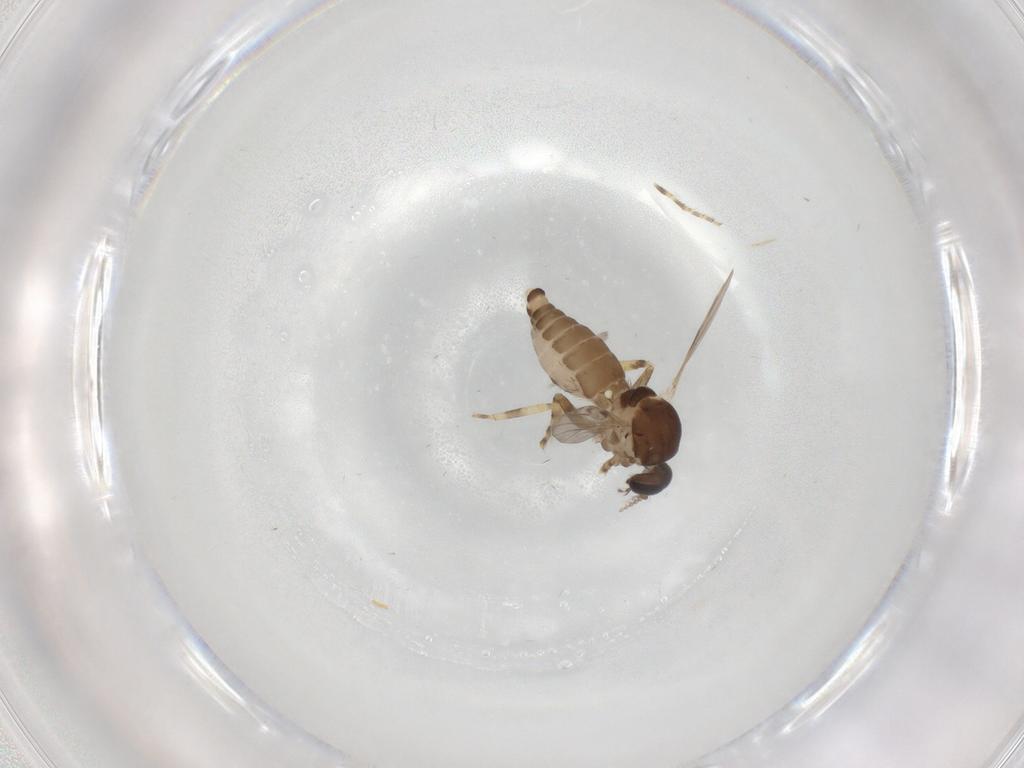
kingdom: Animalia
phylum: Arthropoda
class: Insecta
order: Diptera
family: Ceratopogonidae
